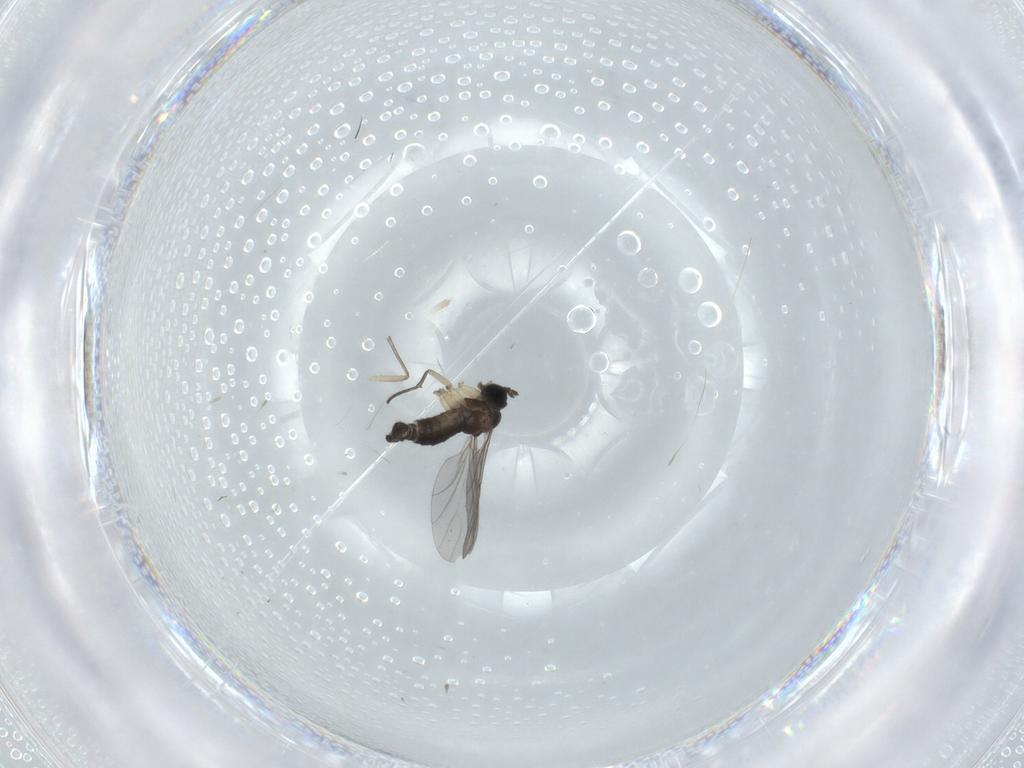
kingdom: Animalia
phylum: Arthropoda
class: Insecta
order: Diptera
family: Sciaridae
